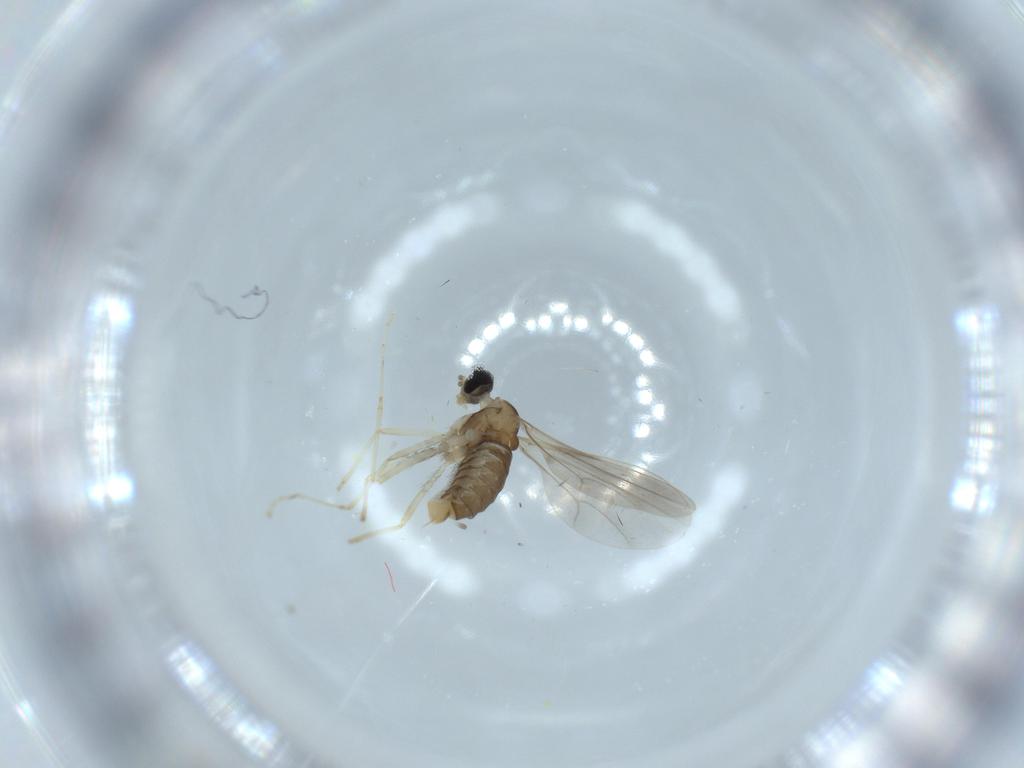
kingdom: Animalia
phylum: Arthropoda
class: Insecta
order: Diptera
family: Cecidomyiidae
